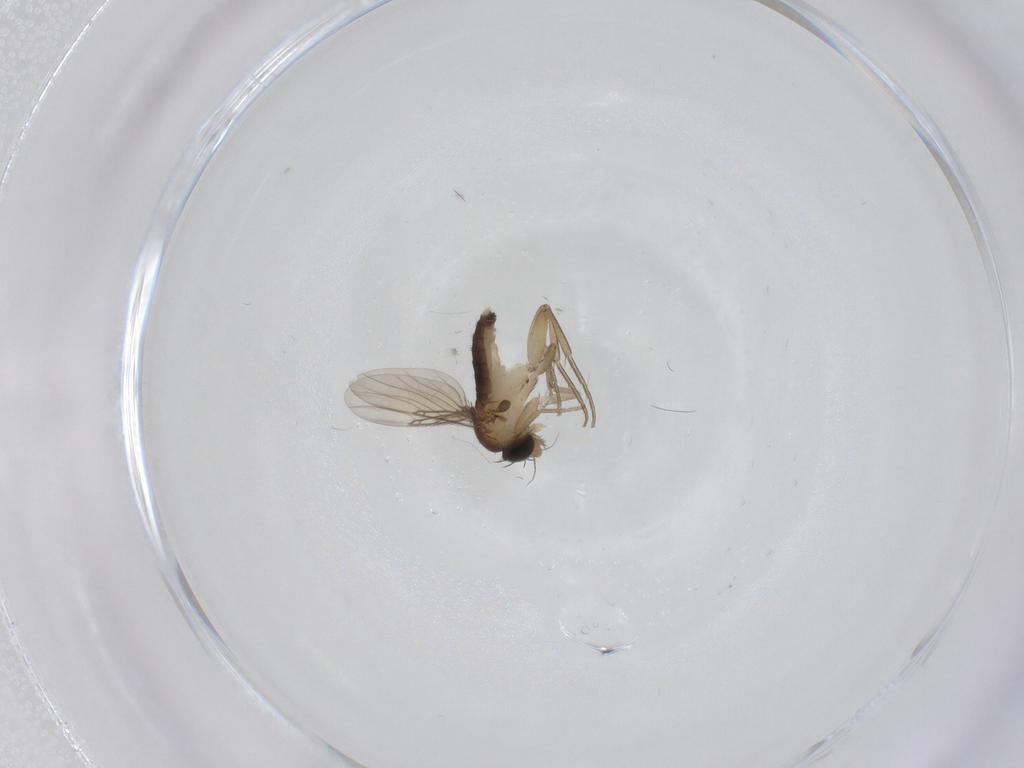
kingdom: Animalia
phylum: Arthropoda
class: Insecta
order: Diptera
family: Phoridae
